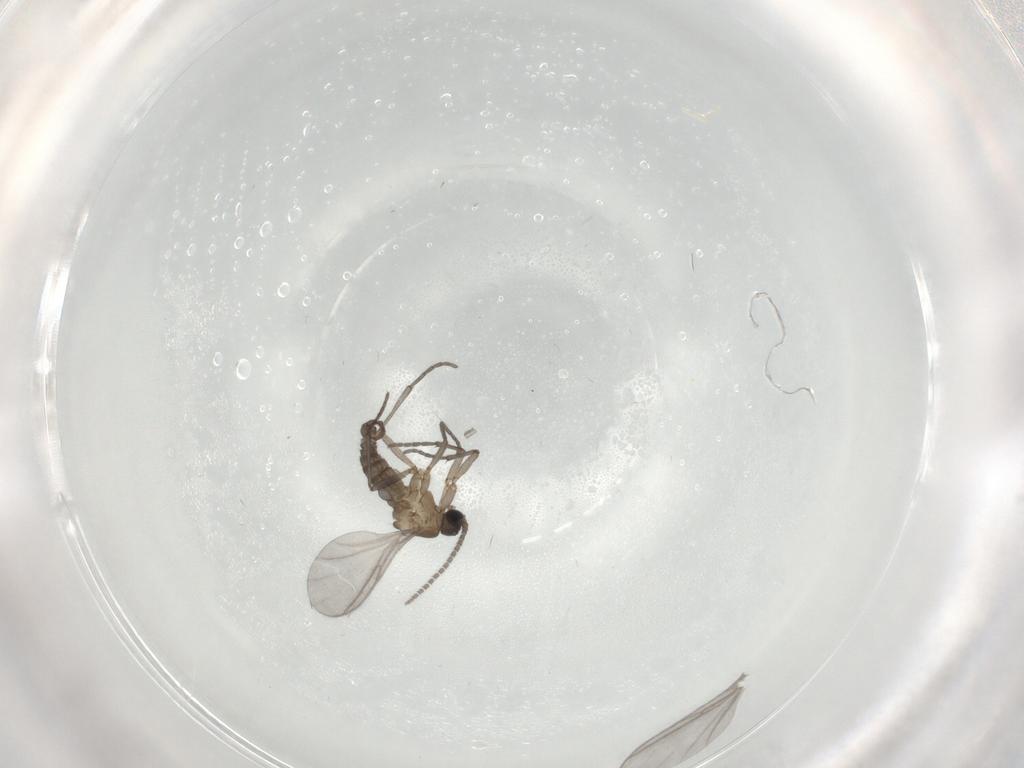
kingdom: Animalia
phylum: Arthropoda
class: Insecta
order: Diptera
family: Sciaridae
